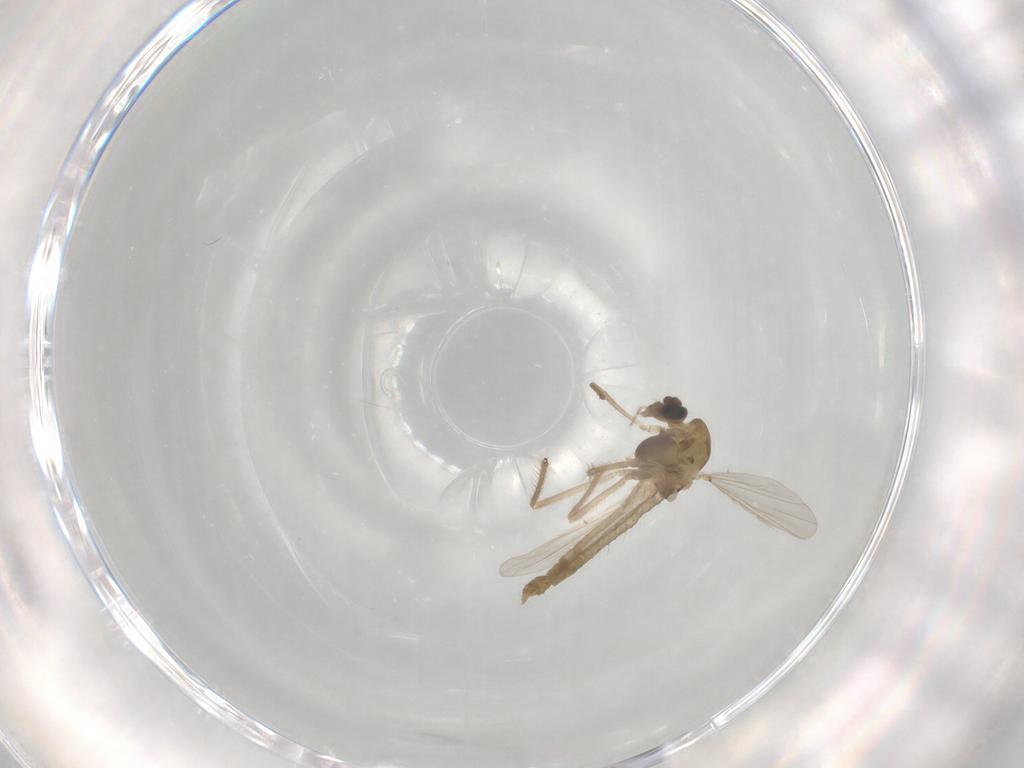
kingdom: Animalia
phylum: Arthropoda
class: Insecta
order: Diptera
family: Chironomidae
